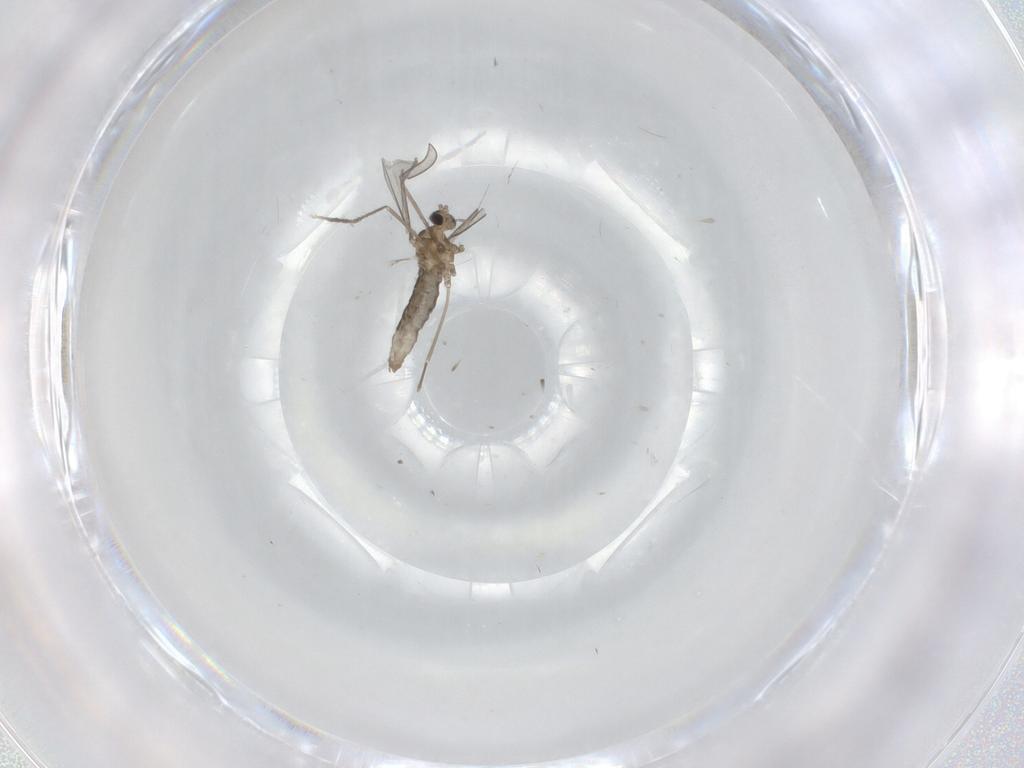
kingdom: Animalia
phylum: Arthropoda
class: Insecta
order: Diptera
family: Cecidomyiidae
